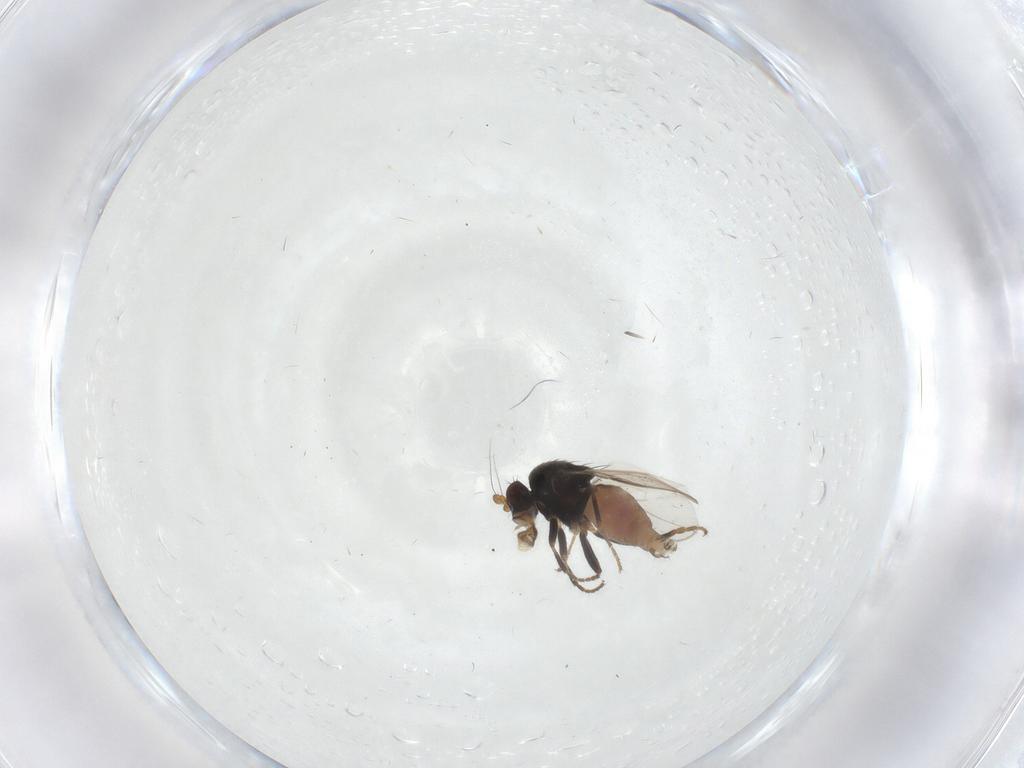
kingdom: Animalia
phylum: Arthropoda
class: Insecta
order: Diptera
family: Sphaeroceridae
